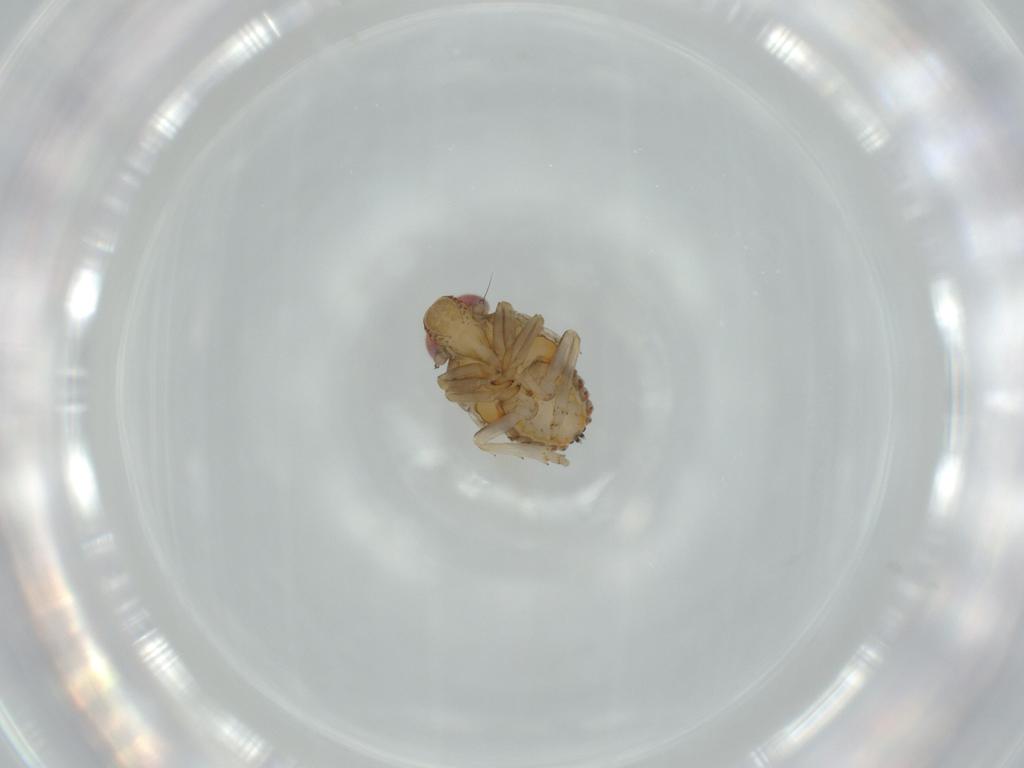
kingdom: Animalia
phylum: Arthropoda
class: Insecta
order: Hemiptera
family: Issidae
